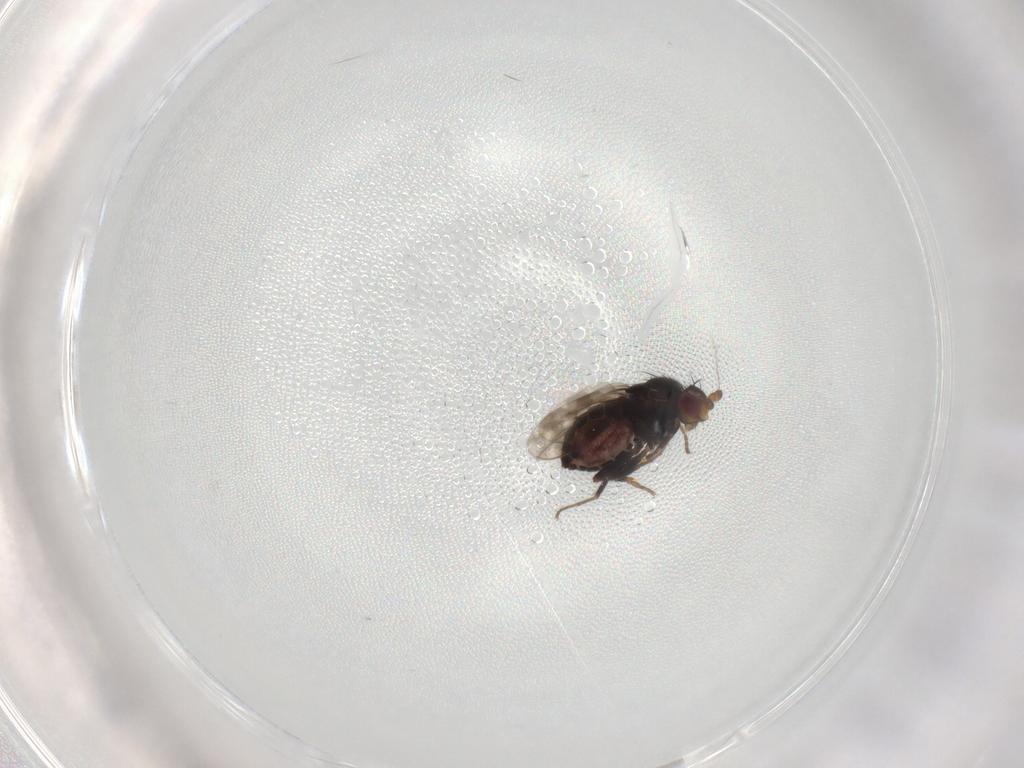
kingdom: Animalia
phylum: Arthropoda
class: Insecta
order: Diptera
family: Cecidomyiidae
